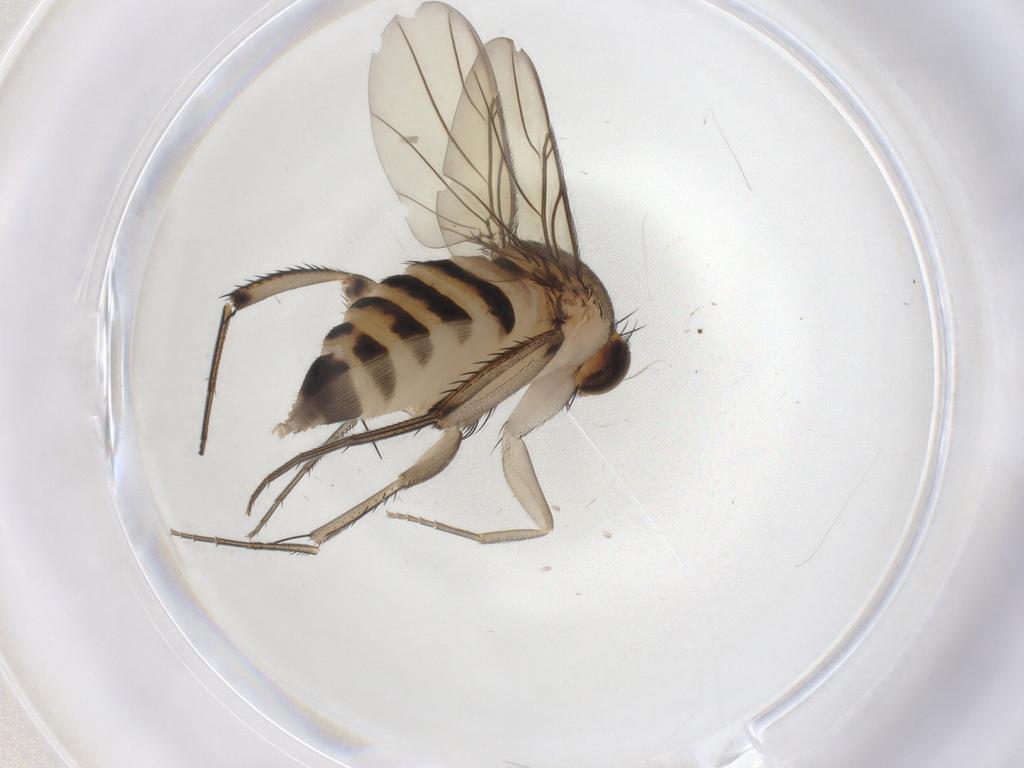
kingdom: Animalia
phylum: Arthropoda
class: Insecta
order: Diptera
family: Phoridae
